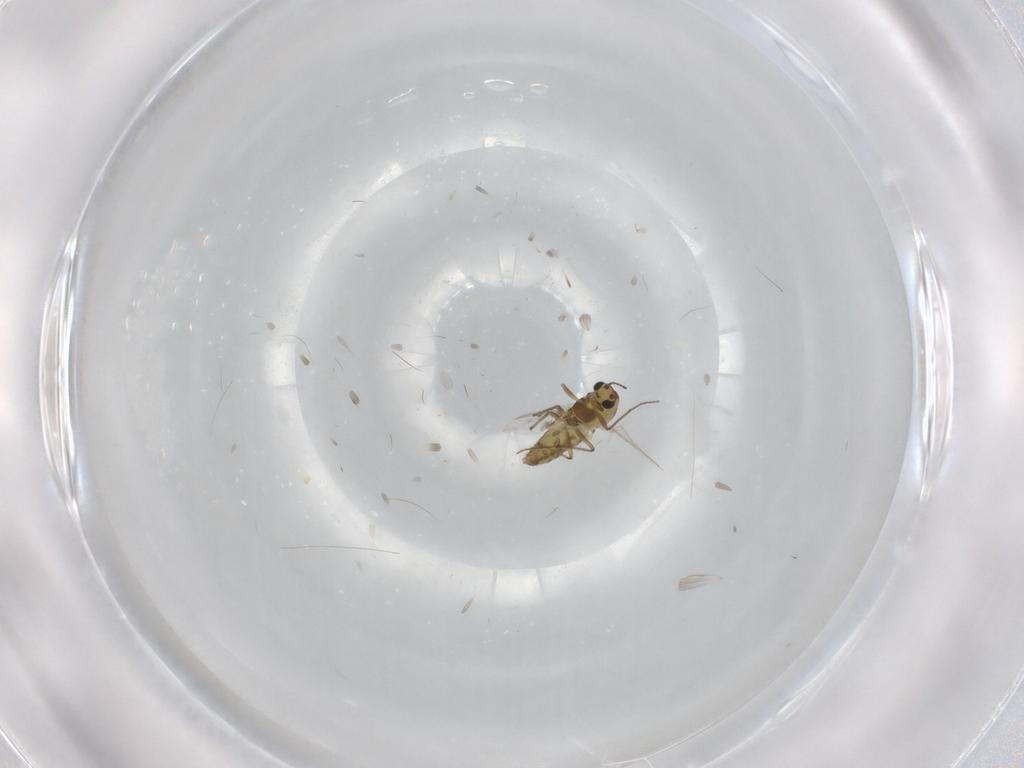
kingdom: Animalia
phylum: Arthropoda
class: Insecta
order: Diptera
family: Chironomidae
